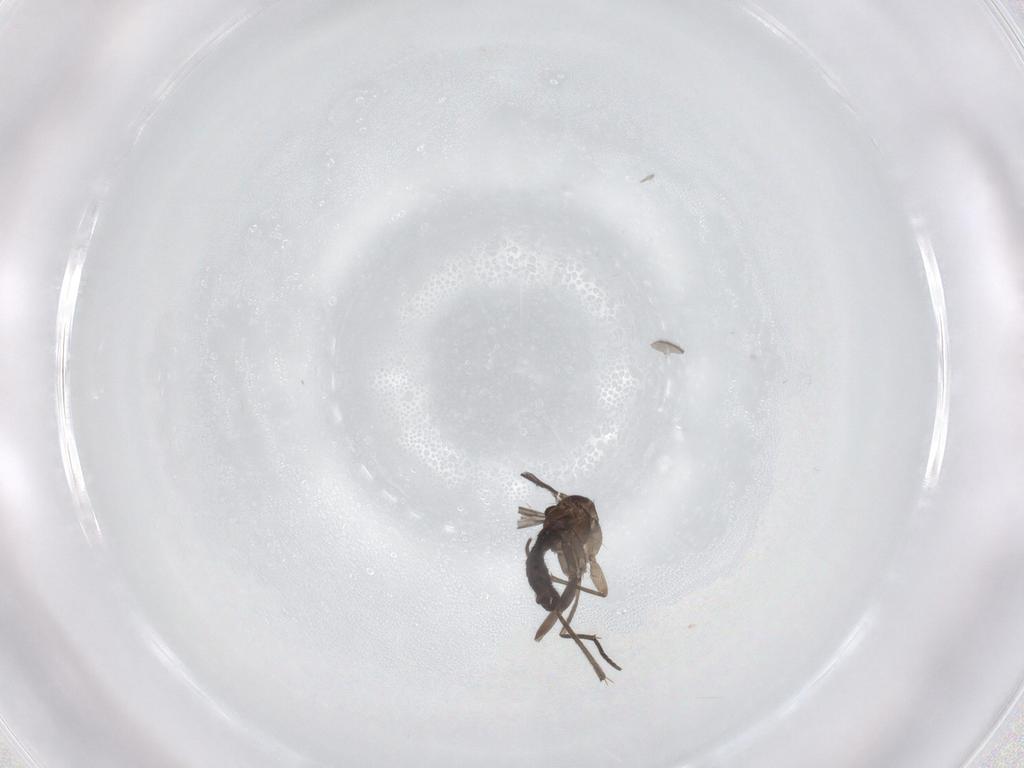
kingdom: Animalia
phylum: Arthropoda
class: Insecta
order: Diptera
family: Sciaridae
